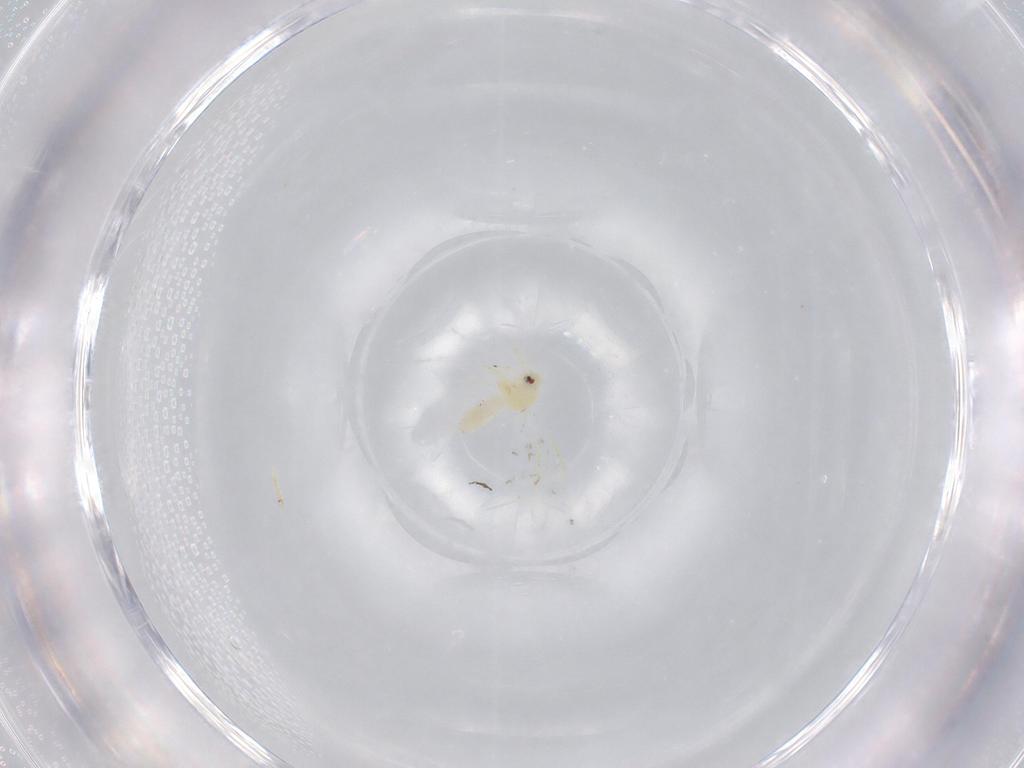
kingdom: Animalia
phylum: Arthropoda
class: Insecta
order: Hemiptera
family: Aleyrodidae
